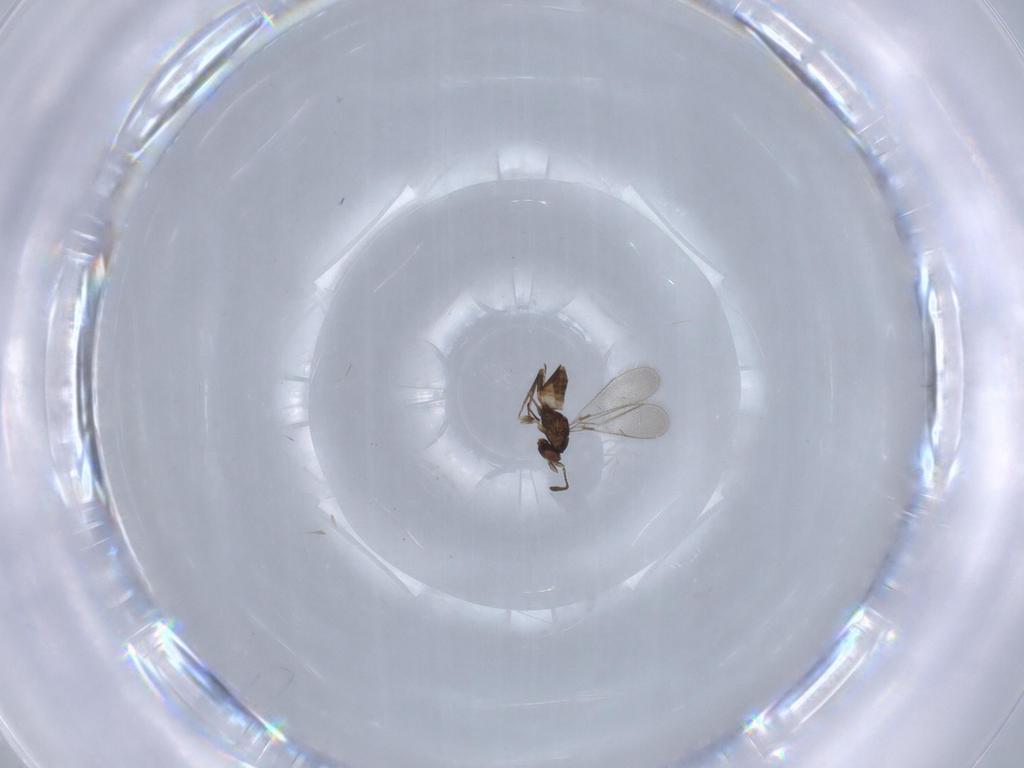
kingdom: Animalia
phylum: Arthropoda
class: Insecta
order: Hymenoptera
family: Mymaridae
